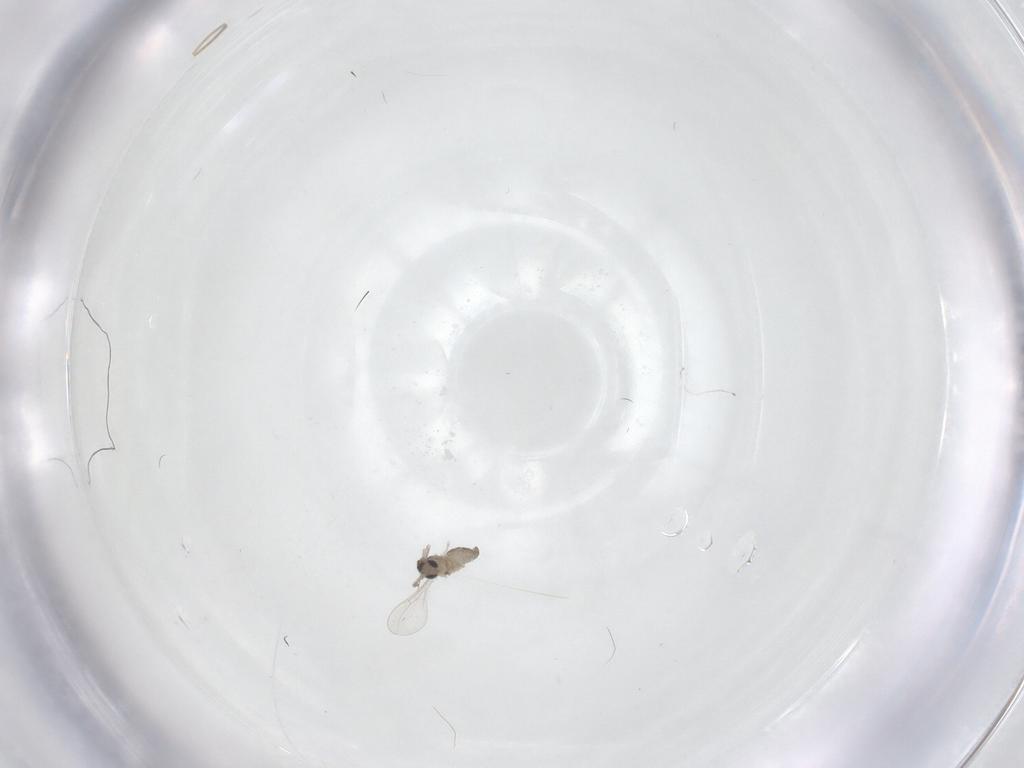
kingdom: Animalia
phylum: Arthropoda
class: Insecta
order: Diptera
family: Cecidomyiidae
